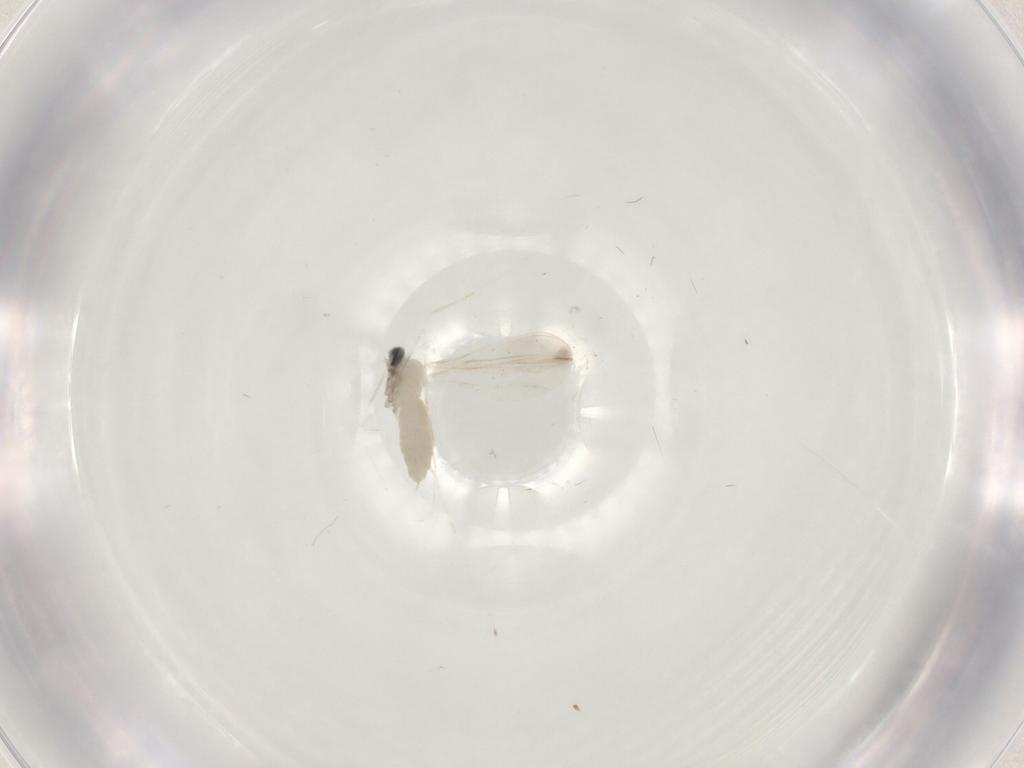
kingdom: Animalia
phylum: Arthropoda
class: Insecta
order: Diptera
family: Cecidomyiidae
